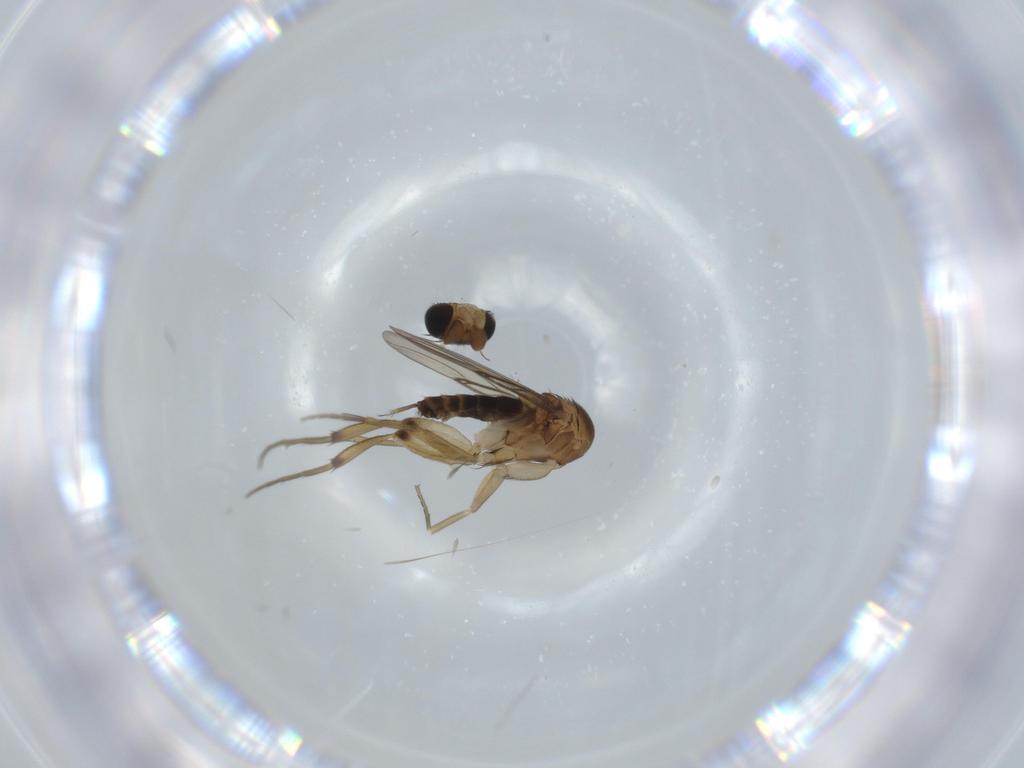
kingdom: Animalia
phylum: Arthropoda
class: Insecta
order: Diptera
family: Phoridae
